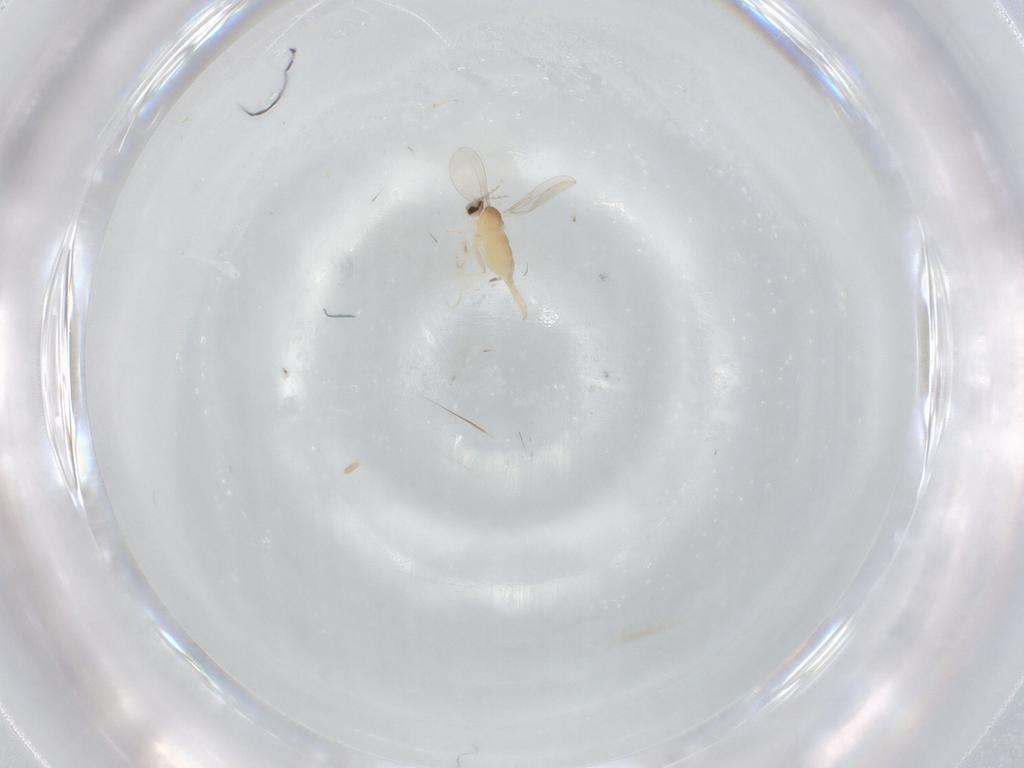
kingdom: Animalia
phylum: Arthropoda
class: Insecta
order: Diptera
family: Cecidomyiidae
